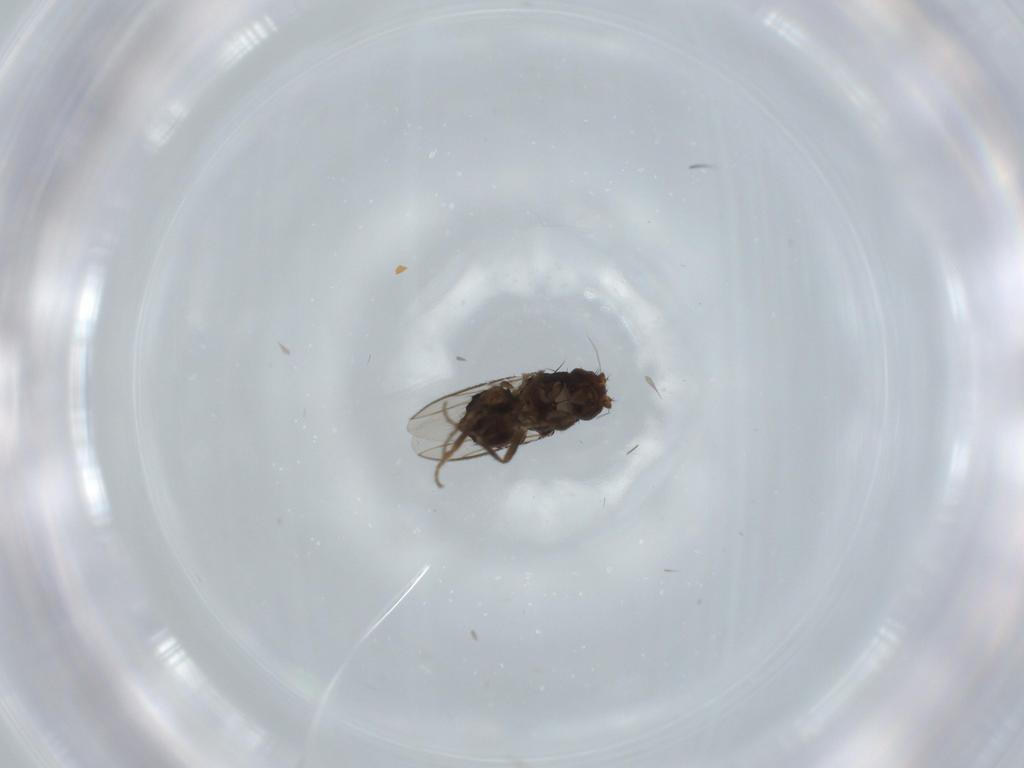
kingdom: Animalia
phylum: Arthropoda
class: Insecta
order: Diptera
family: Sphaeroceridae
